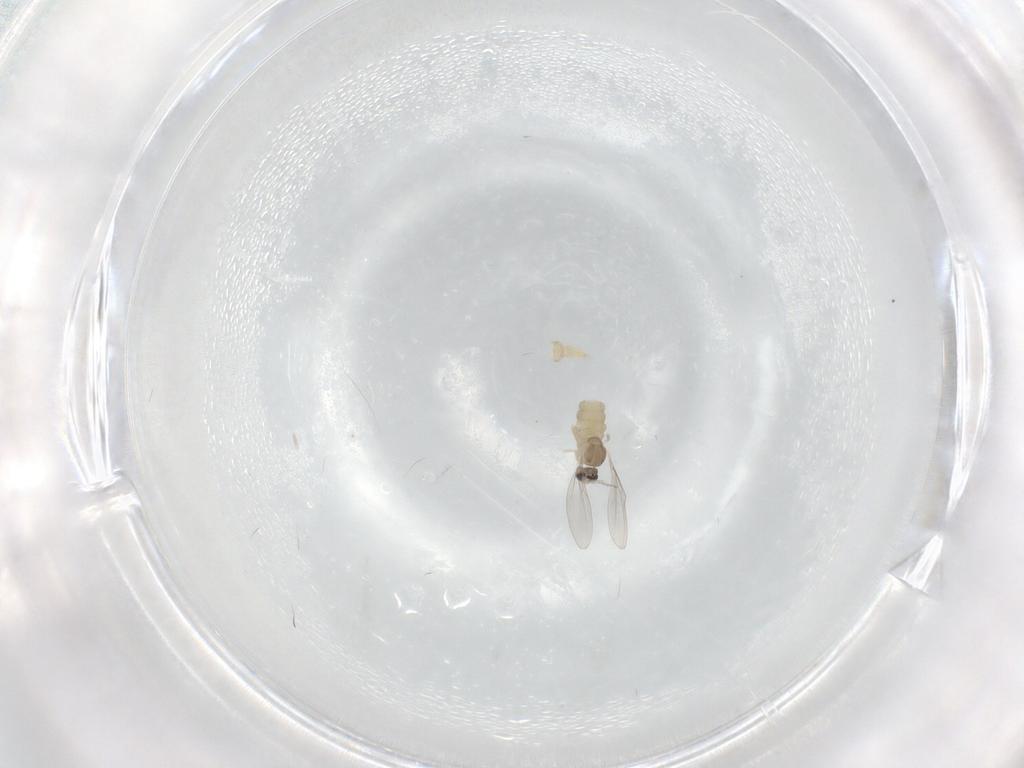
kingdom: Animalia
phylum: Arthropoda
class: Insecta
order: Diptera
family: Cecidomyiidae
